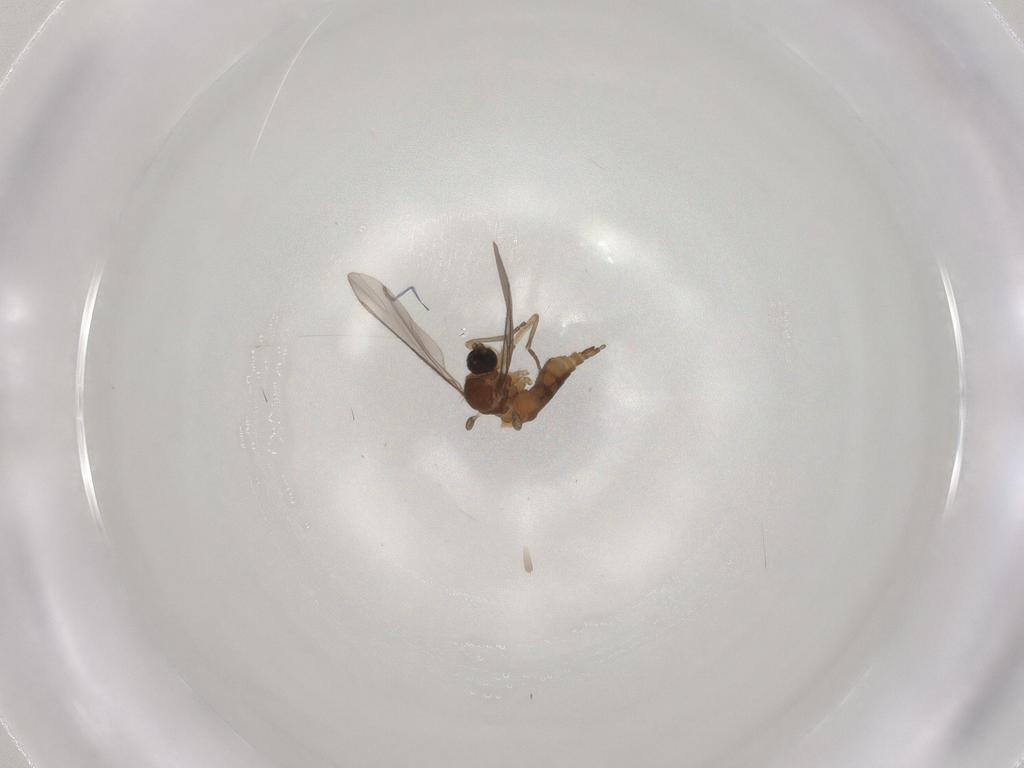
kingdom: Animalia
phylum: Arthropoda
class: Insecta
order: Diptera
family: Sciaridae
